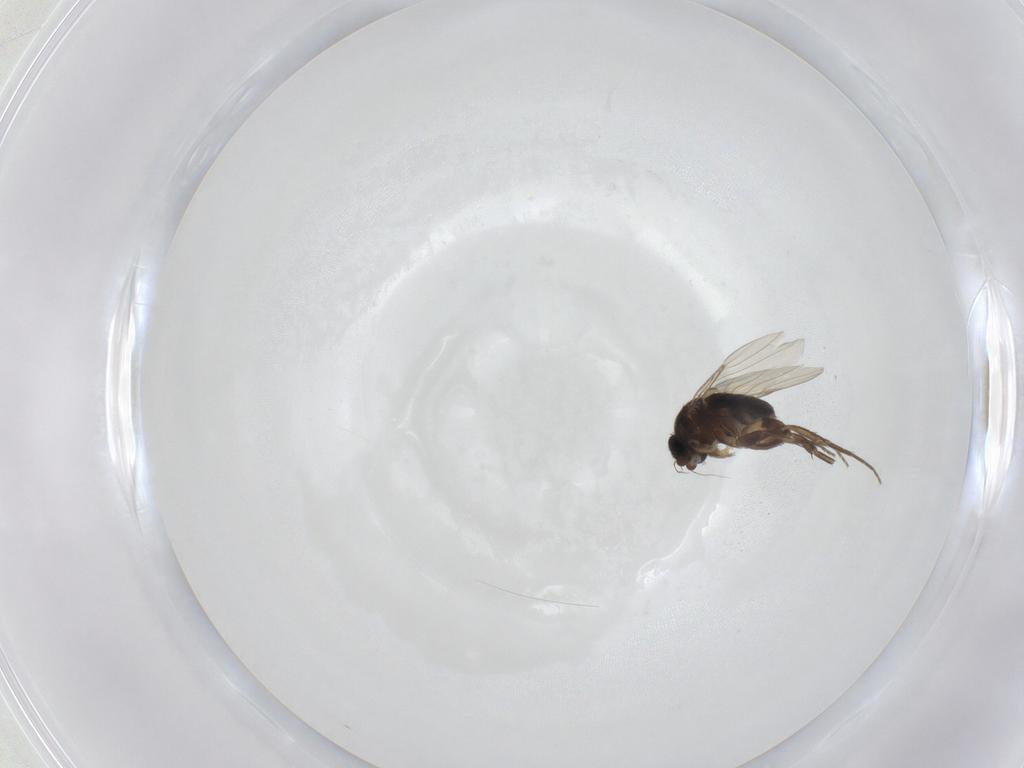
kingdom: Animalia
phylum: Arthropoda
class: Insecta
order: Diptera
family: Phoridae
